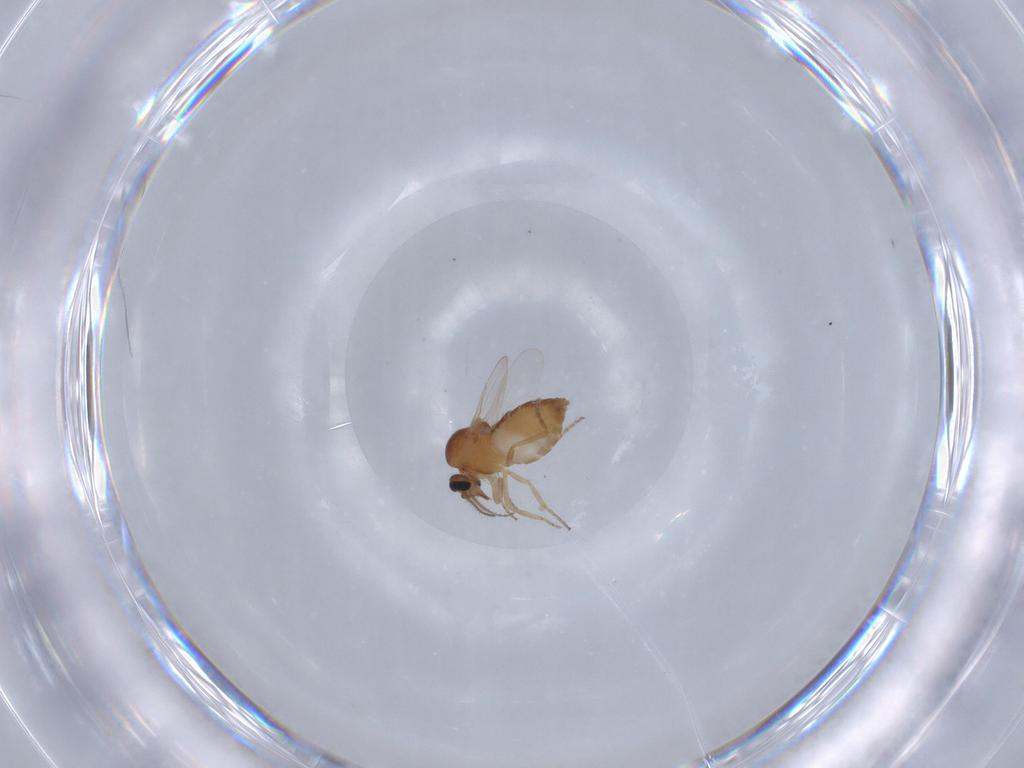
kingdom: Animalia
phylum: Arthropoda
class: Insecta
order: Diptera
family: Ceratopogonidae
